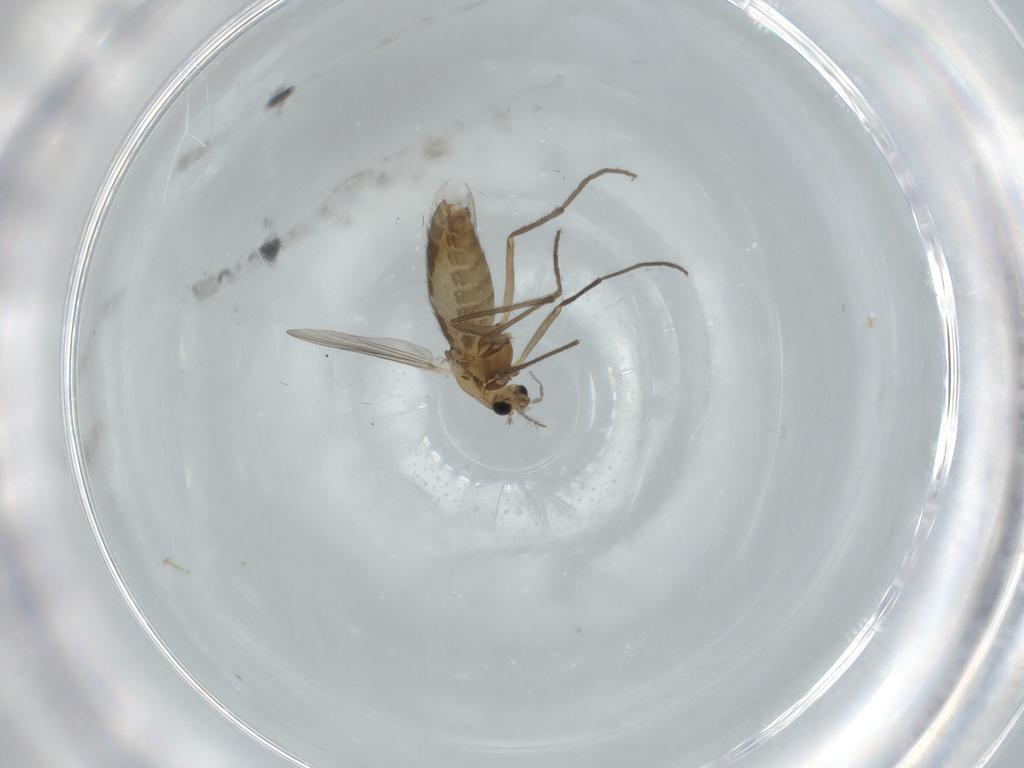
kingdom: Animalia
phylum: Arthropoda
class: Insecta
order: Diptera
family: Chironomidae
